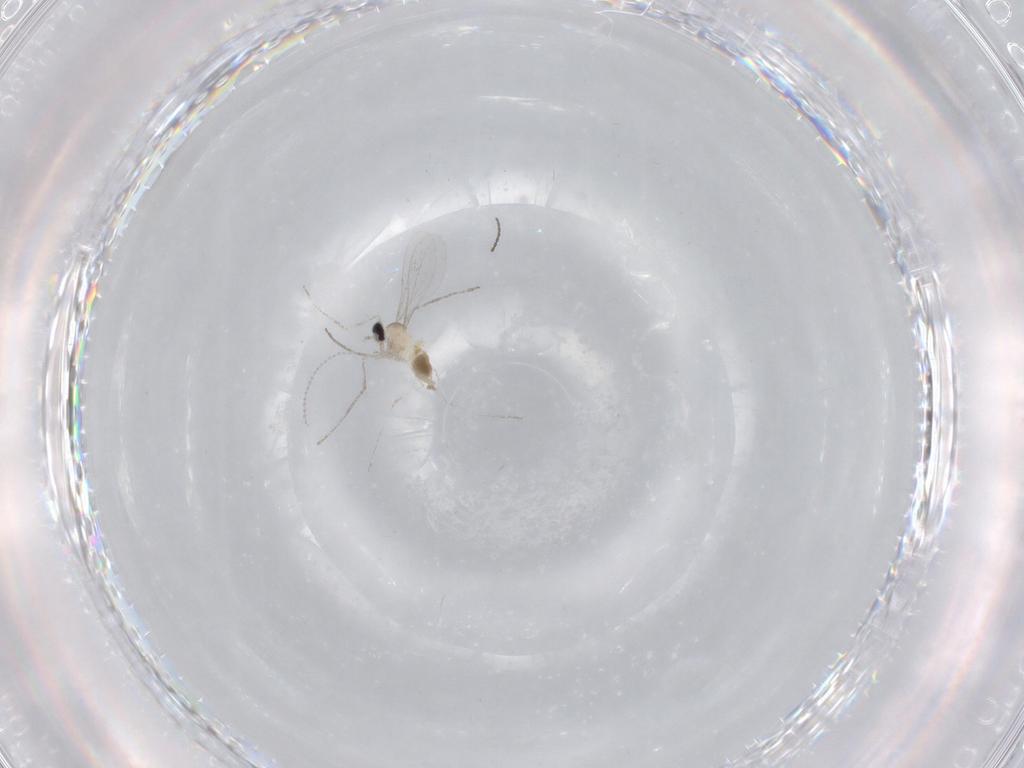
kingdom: Animalia
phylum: Arthropoda
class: Insecta
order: Diptera
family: Cecidomyiidae
